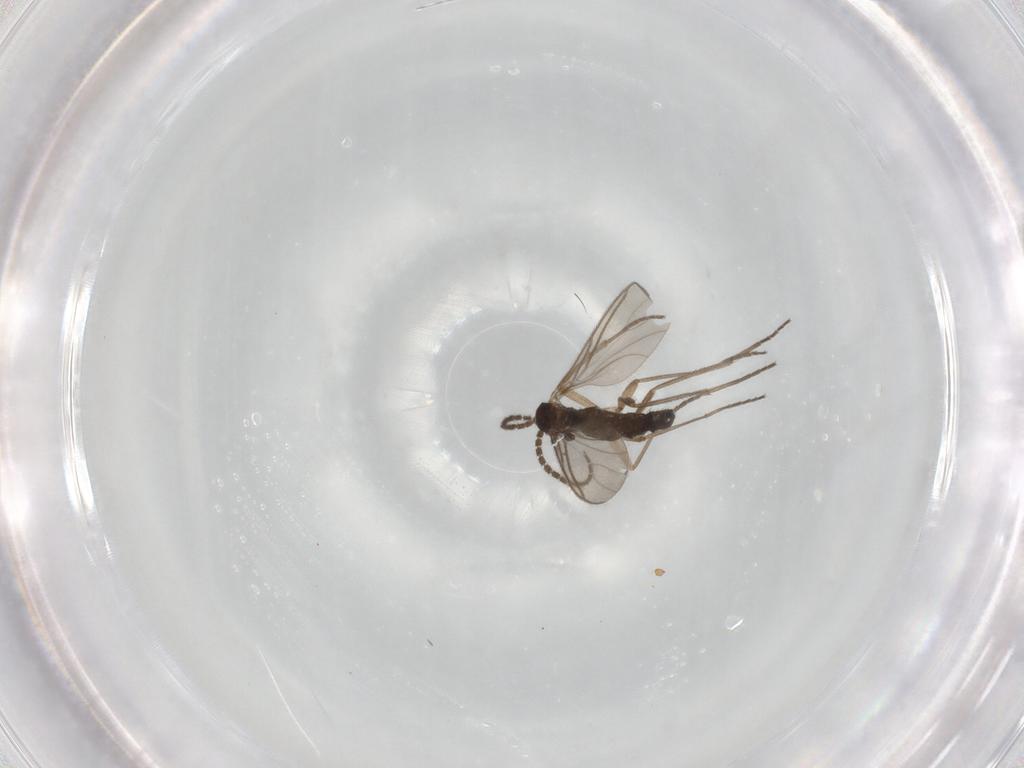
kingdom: Animalia
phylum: Arthropoda
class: Insecta
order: Diptera
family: Sciaridae
